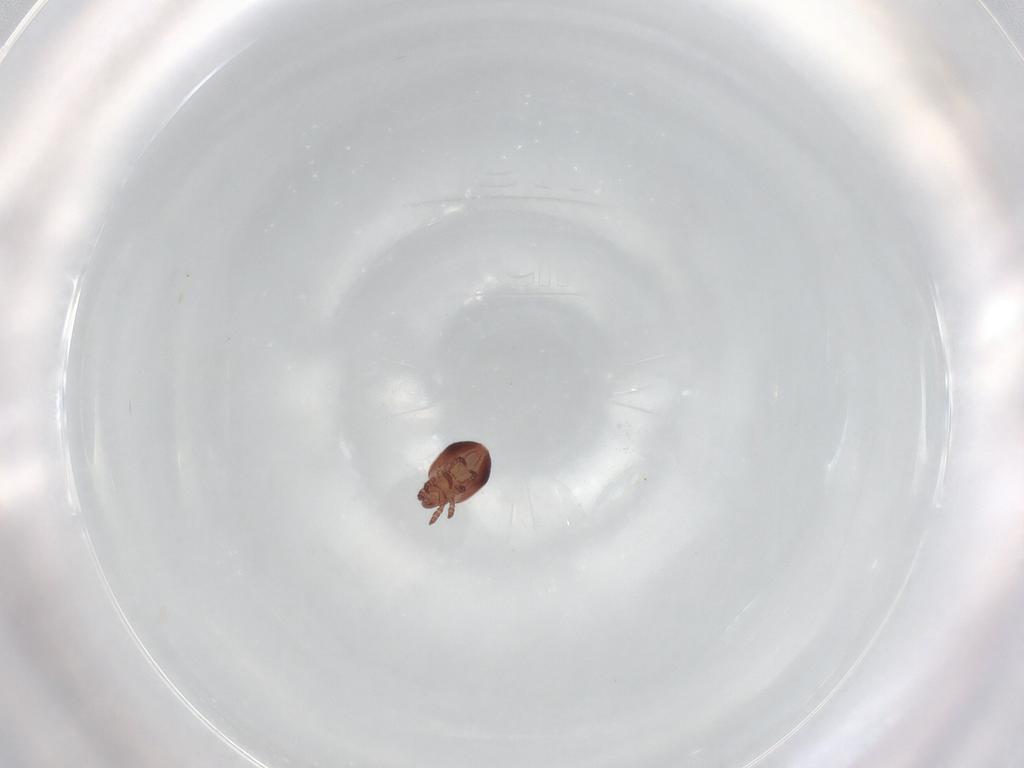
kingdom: Animalia
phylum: Arthropoda
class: Arachnida
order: Sarcoptiformes
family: Trhypochthoniidae
